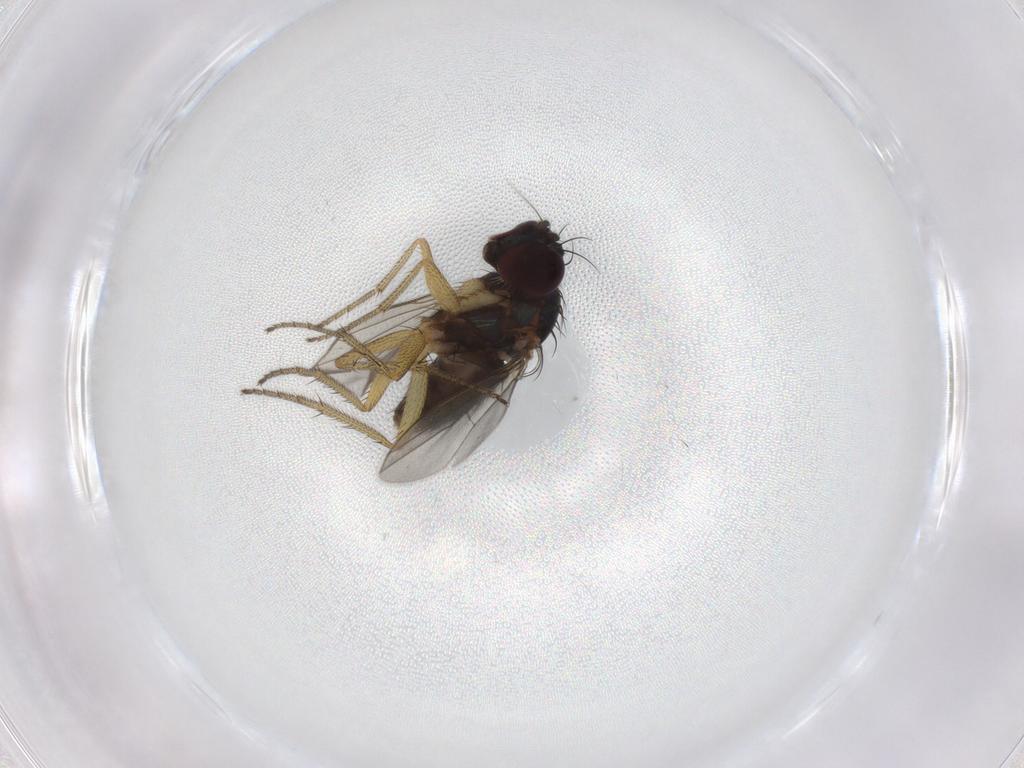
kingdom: Animalia
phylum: Arthropoda
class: Insecta
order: Diptera
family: Dolichopodidae
